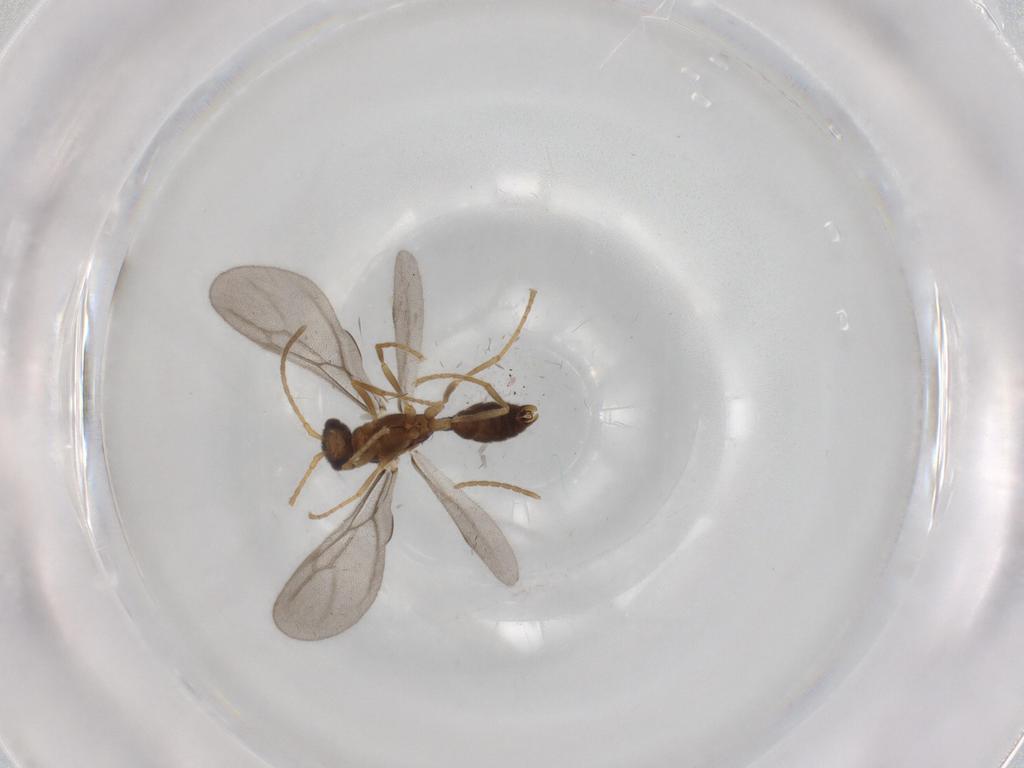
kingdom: Animalia
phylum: Arthropoda
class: Insecta
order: Hymenoptera
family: Formicidae
